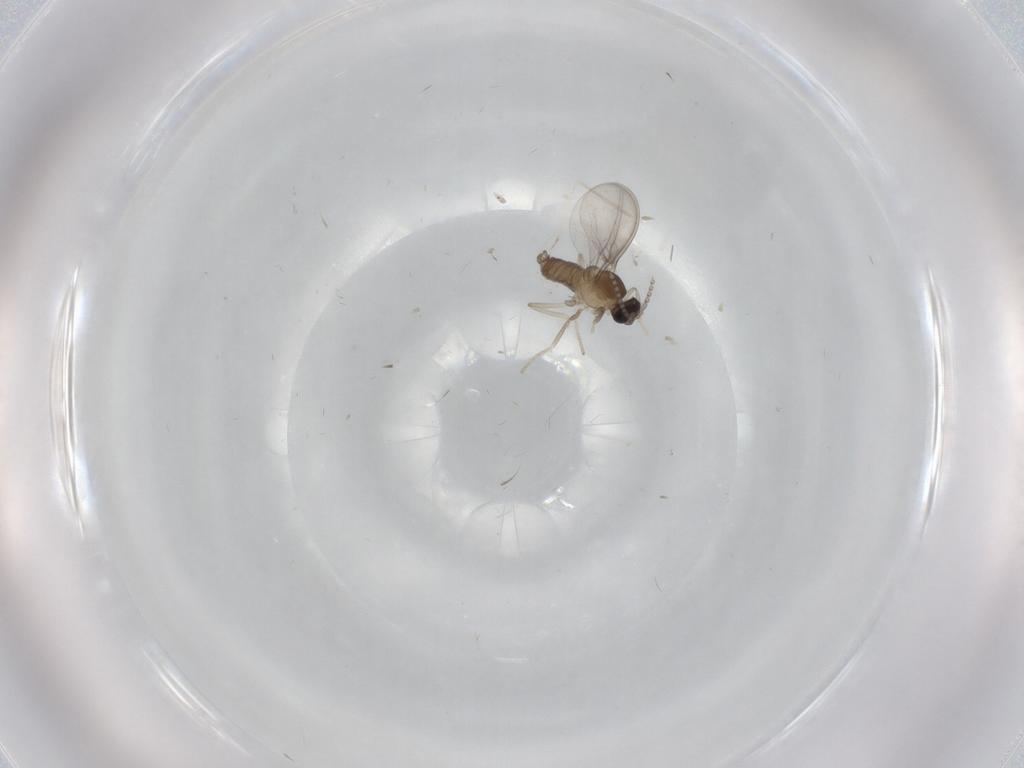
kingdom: Animalia
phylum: Arthropoda
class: Insecta
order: Diptera
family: Cecidomyiidae
